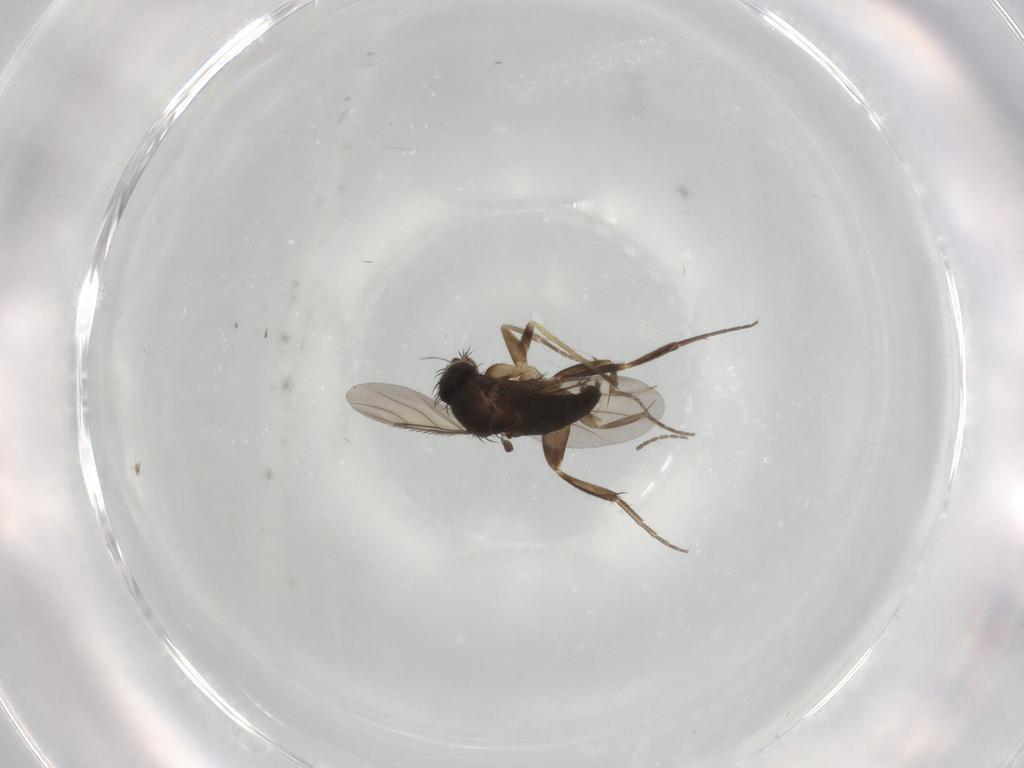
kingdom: Animalia
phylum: Arthropoda
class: Insecta
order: Diptera
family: Phoridae
